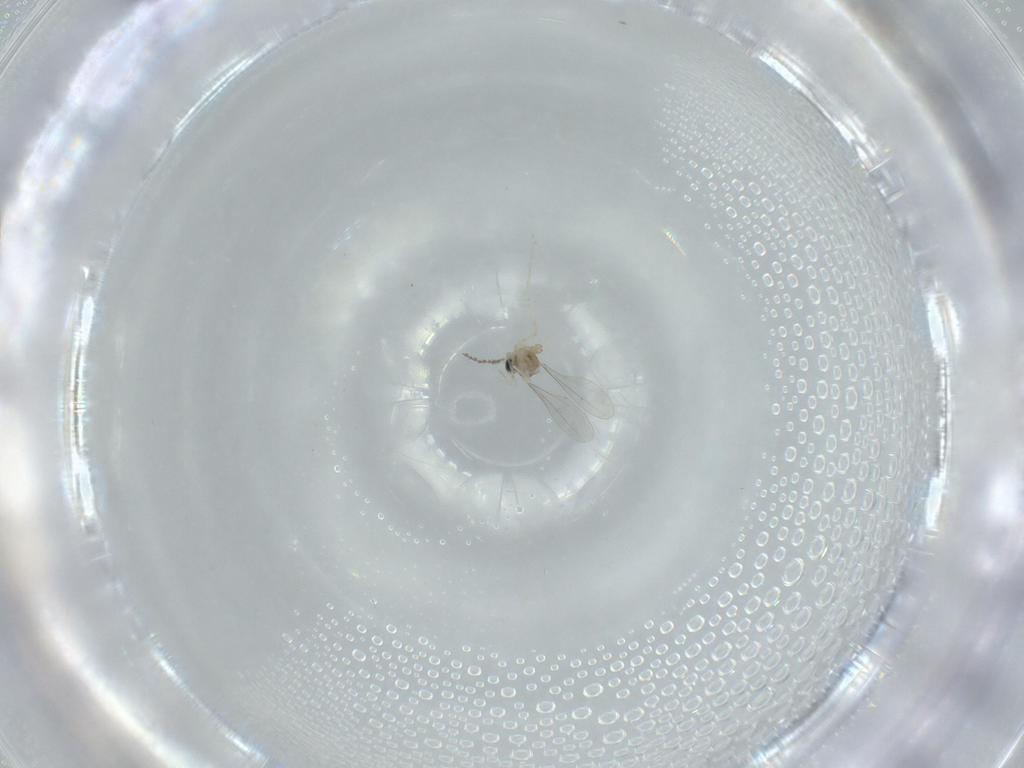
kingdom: Animalia
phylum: Arthropoda
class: Insecta
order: Diptera
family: Cecidomyiidae
